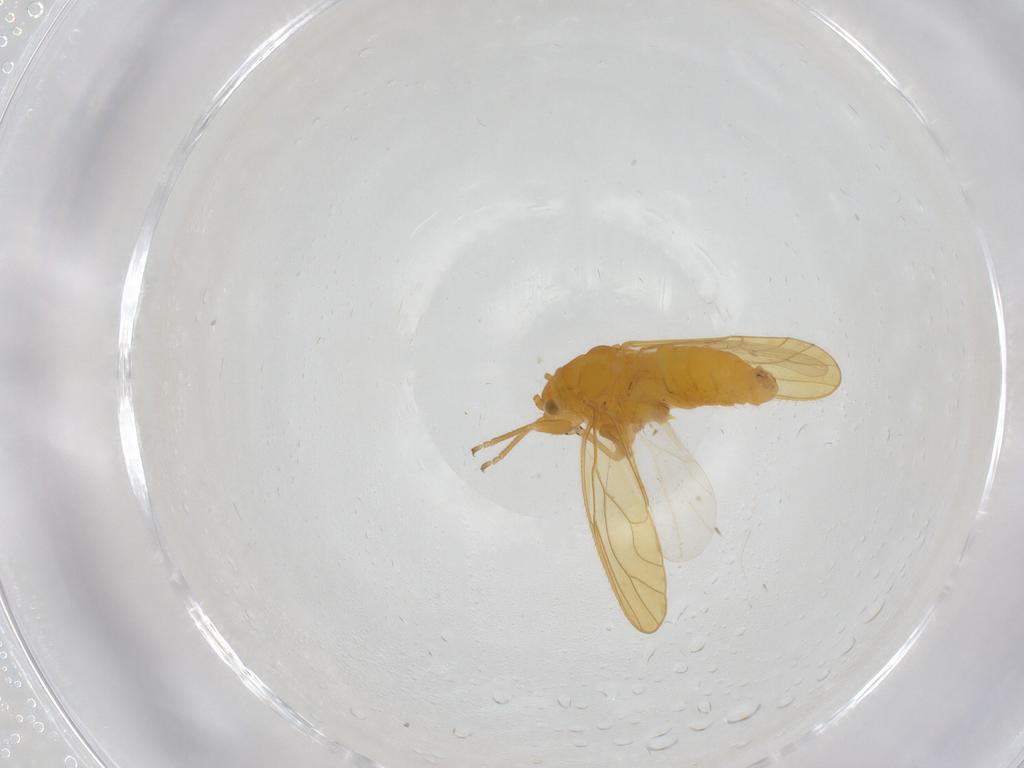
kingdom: Animalia
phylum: Arthropoda
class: Insecta
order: Hemiptera
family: Psyllidae
